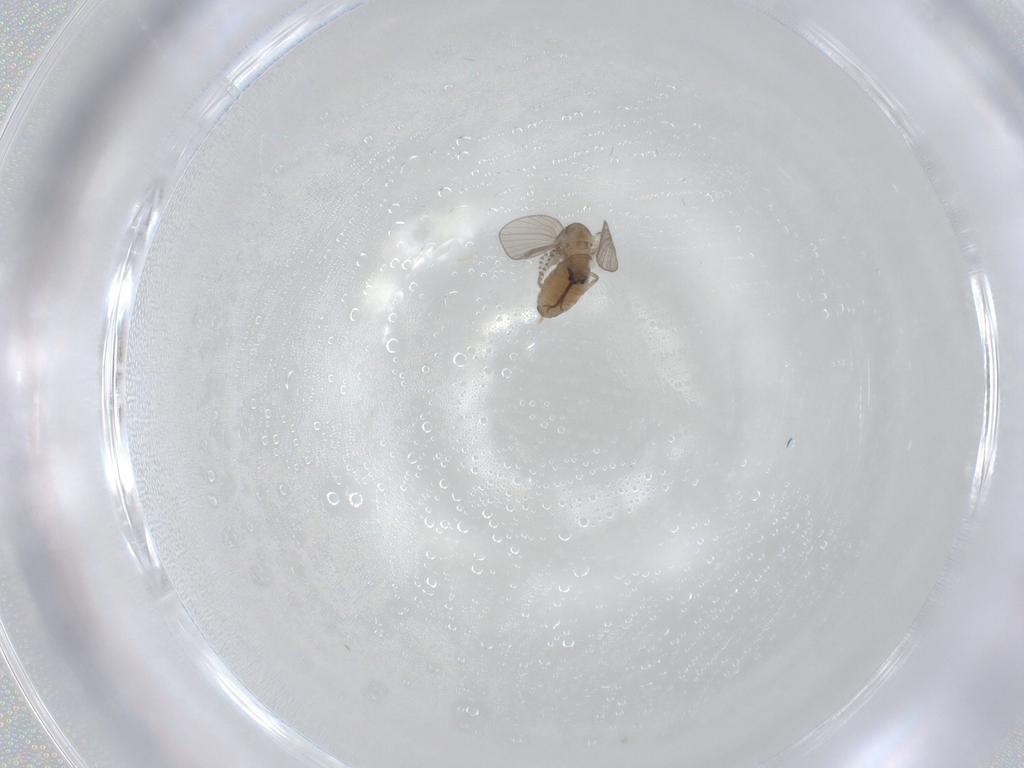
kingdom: Animalia
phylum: Arthropoda
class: Insecta
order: Diptera
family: Psychodidae
